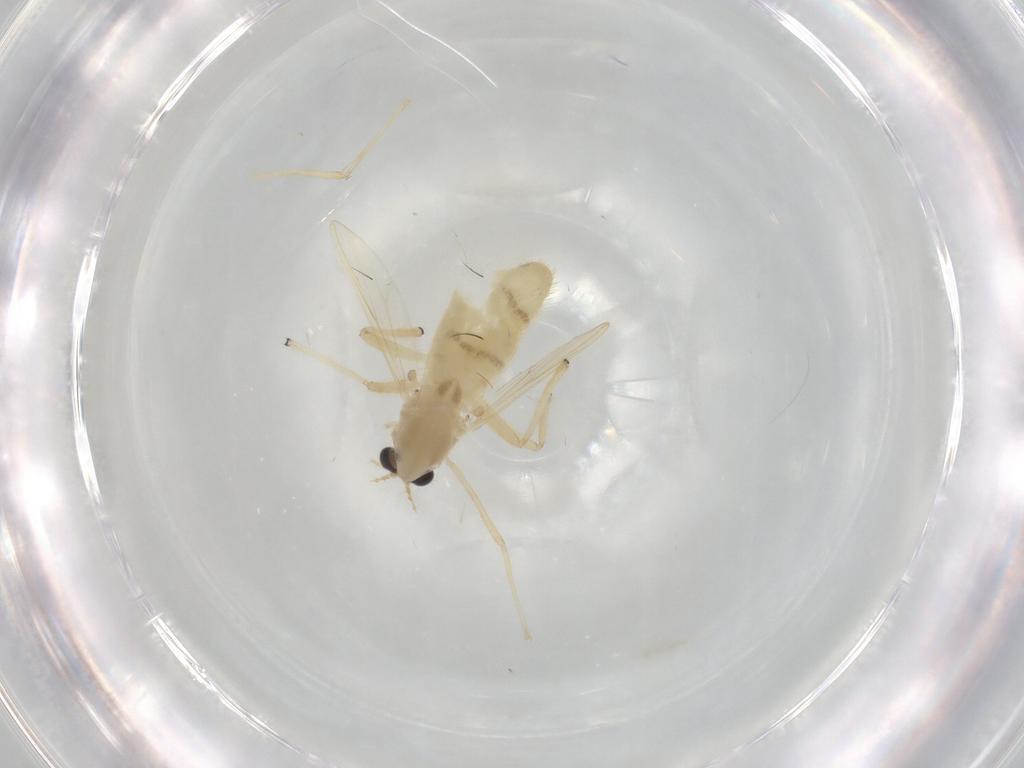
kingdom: Animalia
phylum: Arthropoda
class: Insecta
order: Diptera
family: Chironomidae
